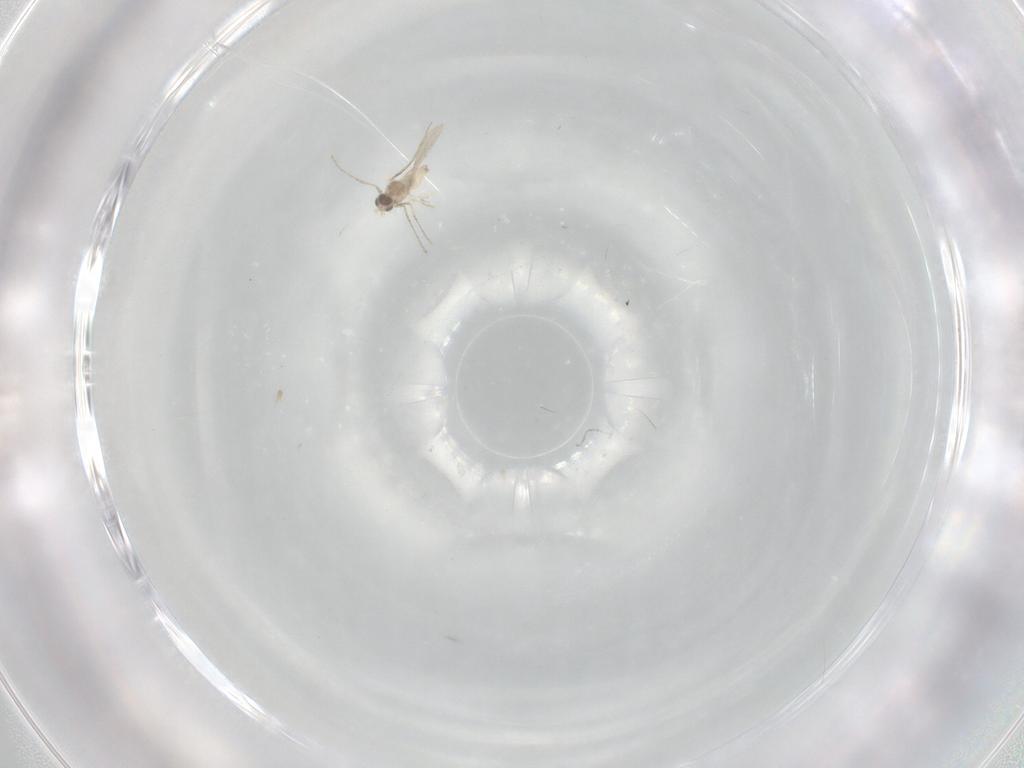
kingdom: Animalia
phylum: Arthropoda
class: Insecta
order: Diptera
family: Cecidomyiidae
